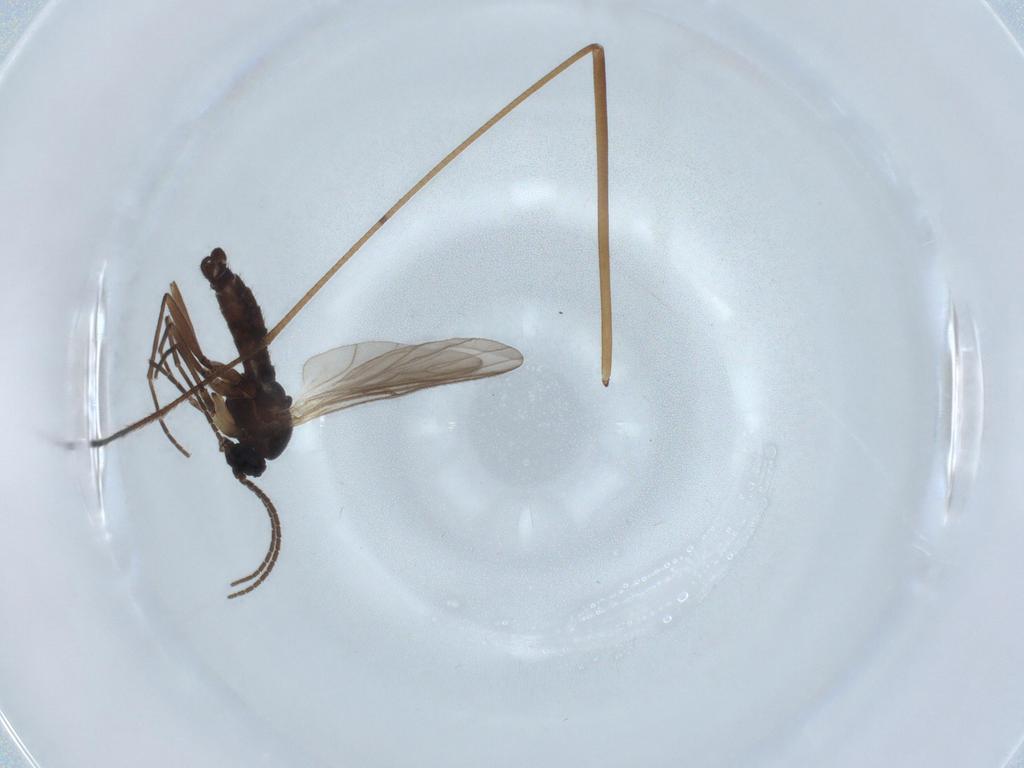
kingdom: Animalia
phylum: Arthropoda
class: Insecta
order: Diptera
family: Sciaridae
